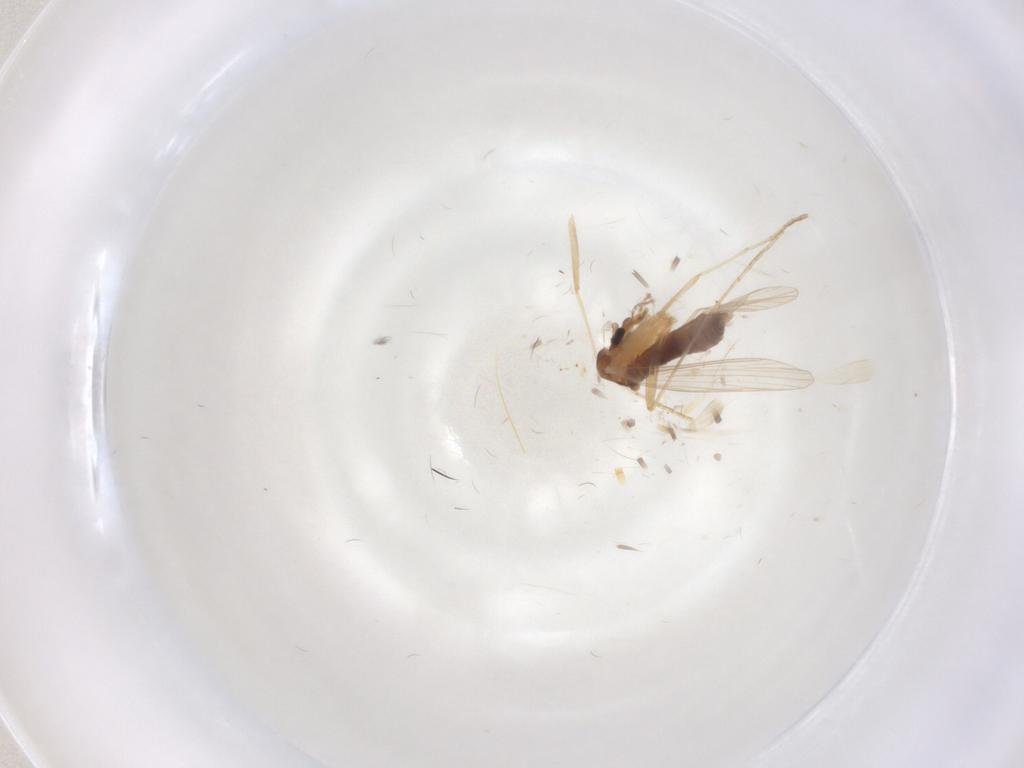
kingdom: Animalia
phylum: Arthropoda
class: Insecta
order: Diptera
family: Psychodidae
